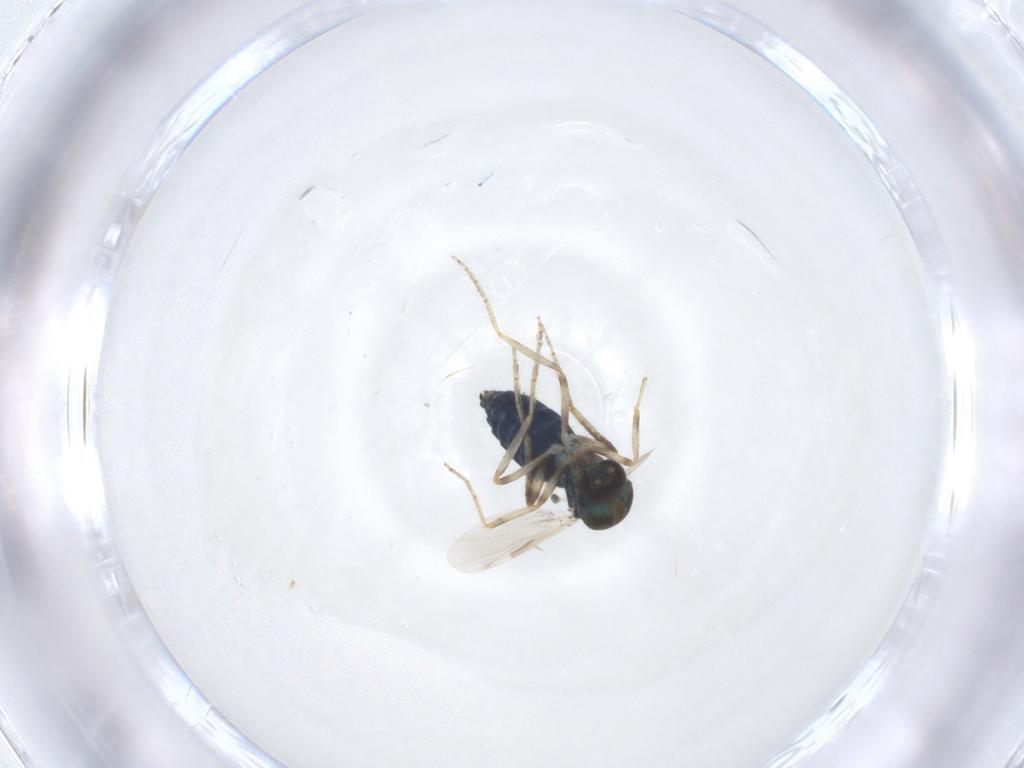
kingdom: Animalia
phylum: Arthropoda
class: Insecta
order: Diptera
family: Ceratopogonidae
